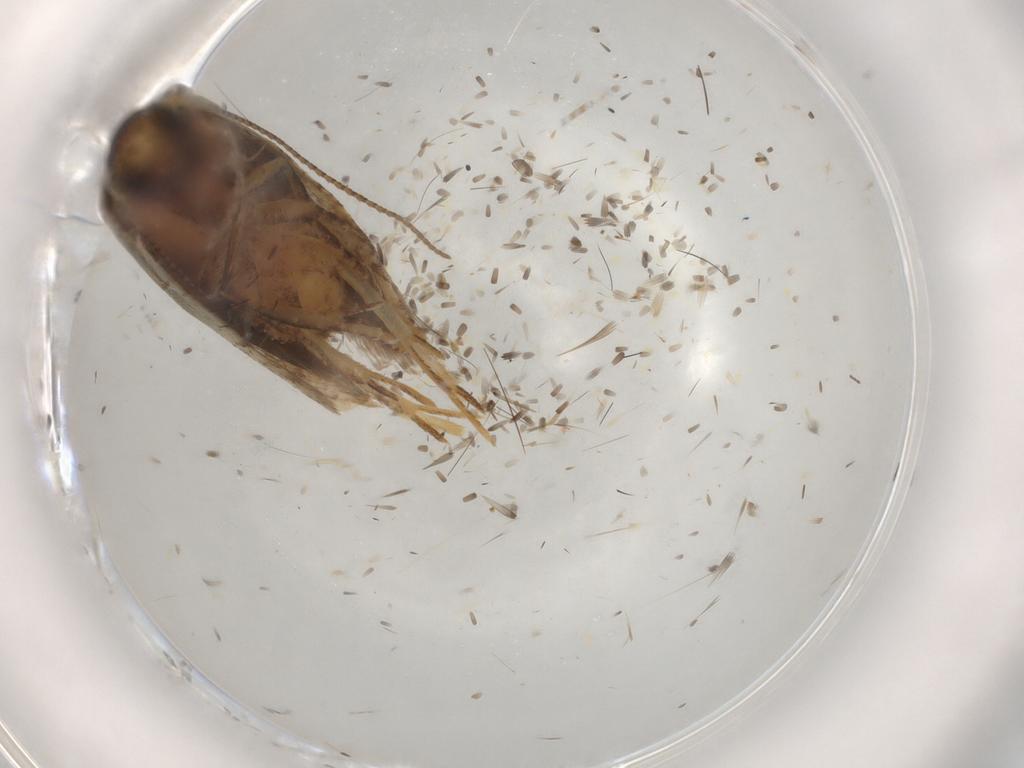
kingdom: Animalia
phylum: Arthropoda
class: Insecta
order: Lepidoptera
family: Gelechiidae
